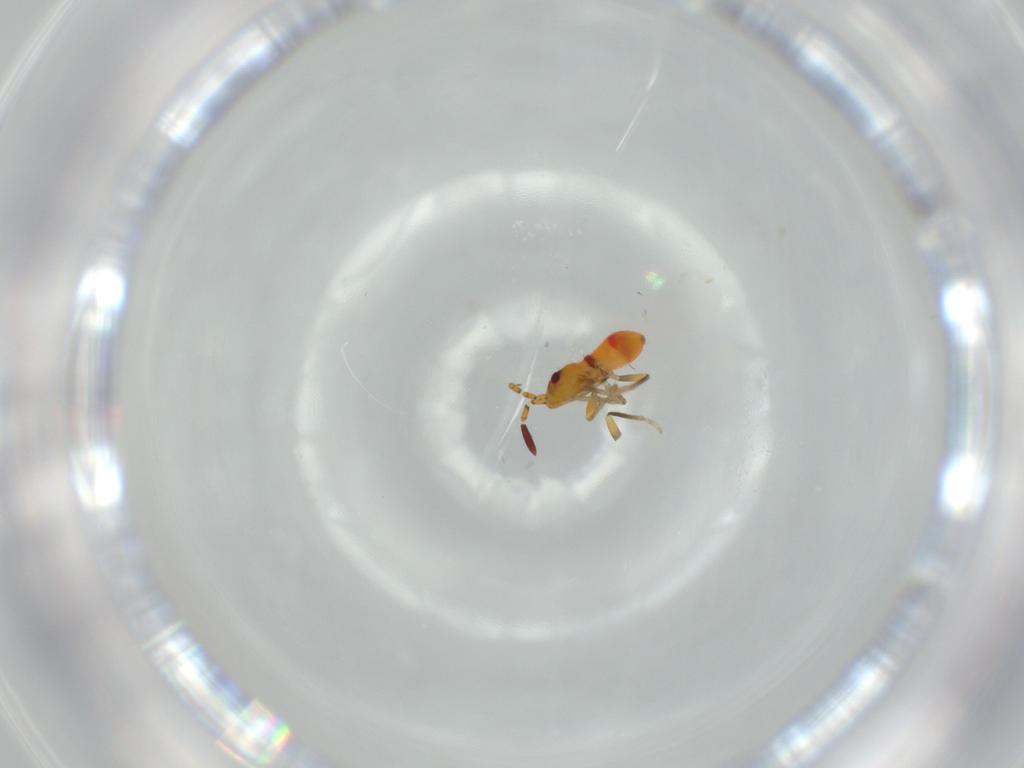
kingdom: Animalia
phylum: Arthropoda
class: Insecta
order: Hemiptera
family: Rhyparochromidae
